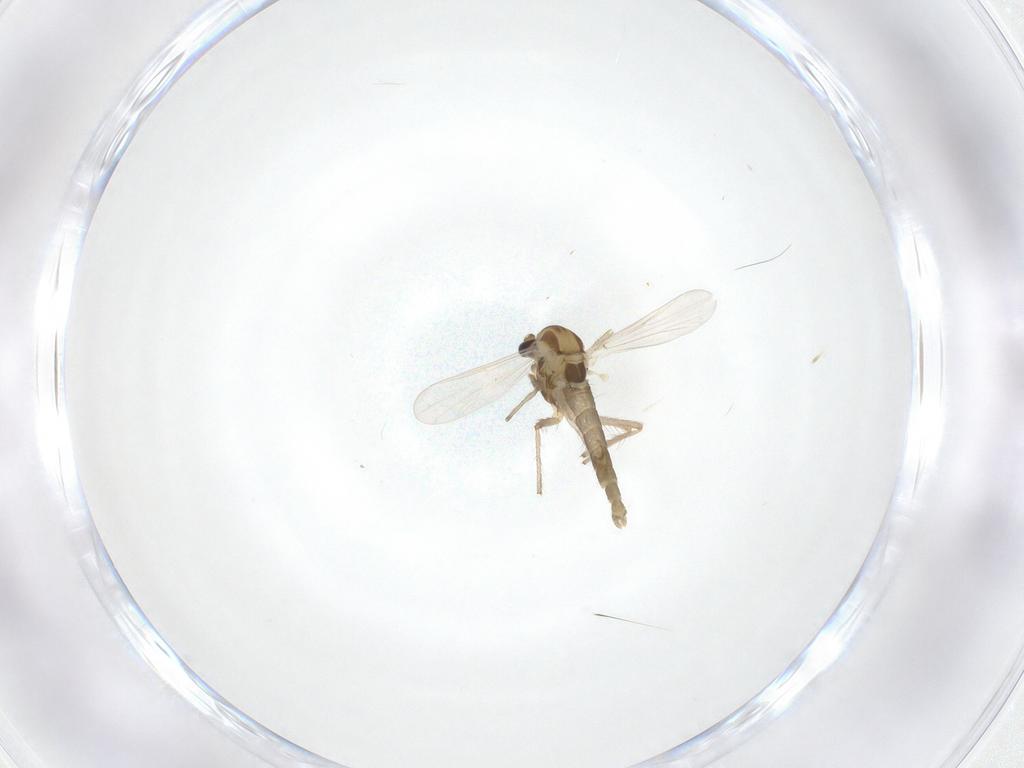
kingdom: Animalia
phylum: Arthropoda
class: Insecta
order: Diptera
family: Chironomidae
